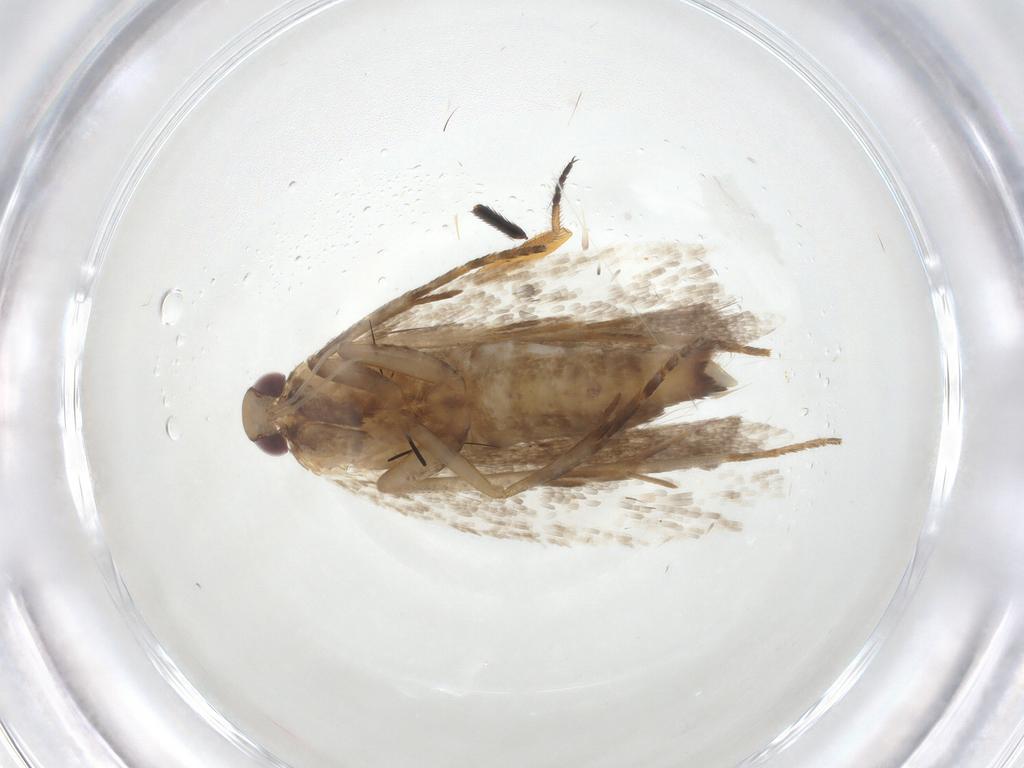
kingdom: Animalia
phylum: Arthropoda
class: Insecta
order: Lepidoptera
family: Gelechiidae
